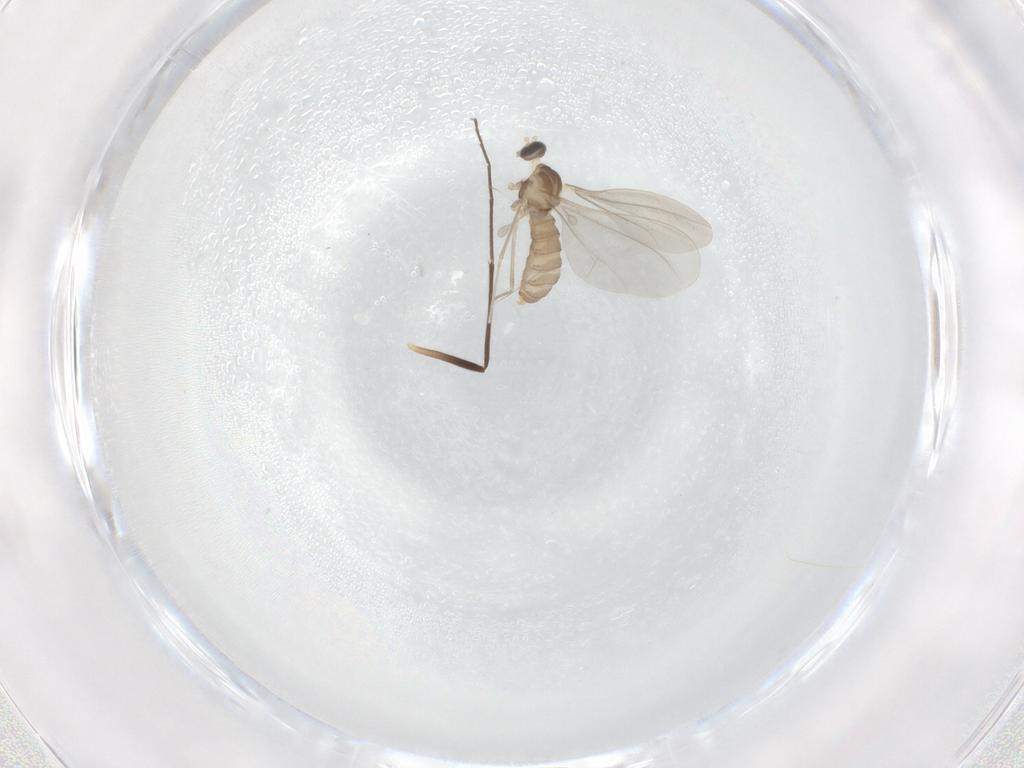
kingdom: Animalia
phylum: Arthropoda
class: Insecta
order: Diptera
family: Cecidomyiidae
